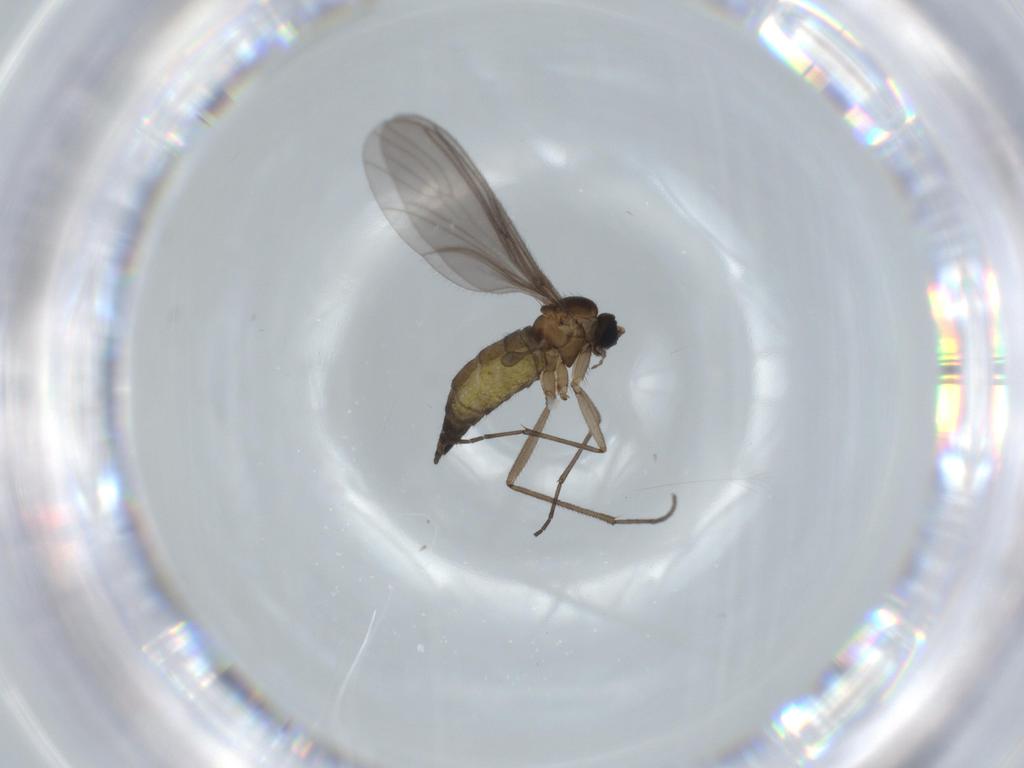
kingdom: Animalia
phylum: Arthropoda
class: Insecta
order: Diptera
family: Sciaridae
